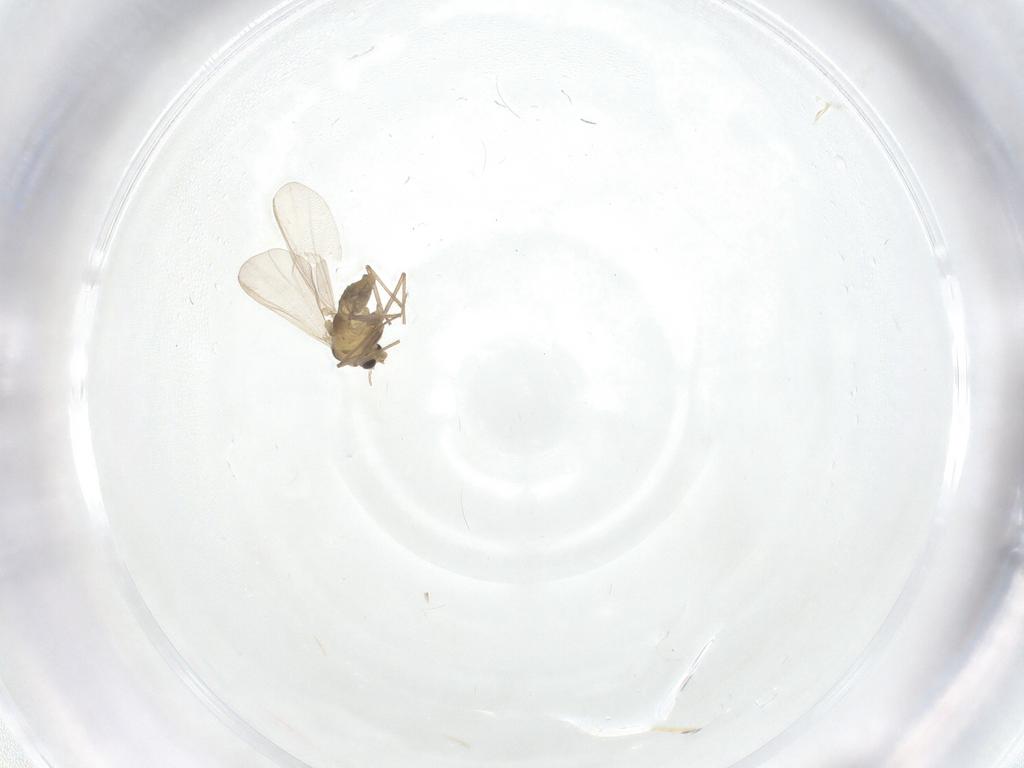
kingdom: Animalia
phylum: Arthropoda
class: Insecta
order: Diptera
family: Chironomidae
